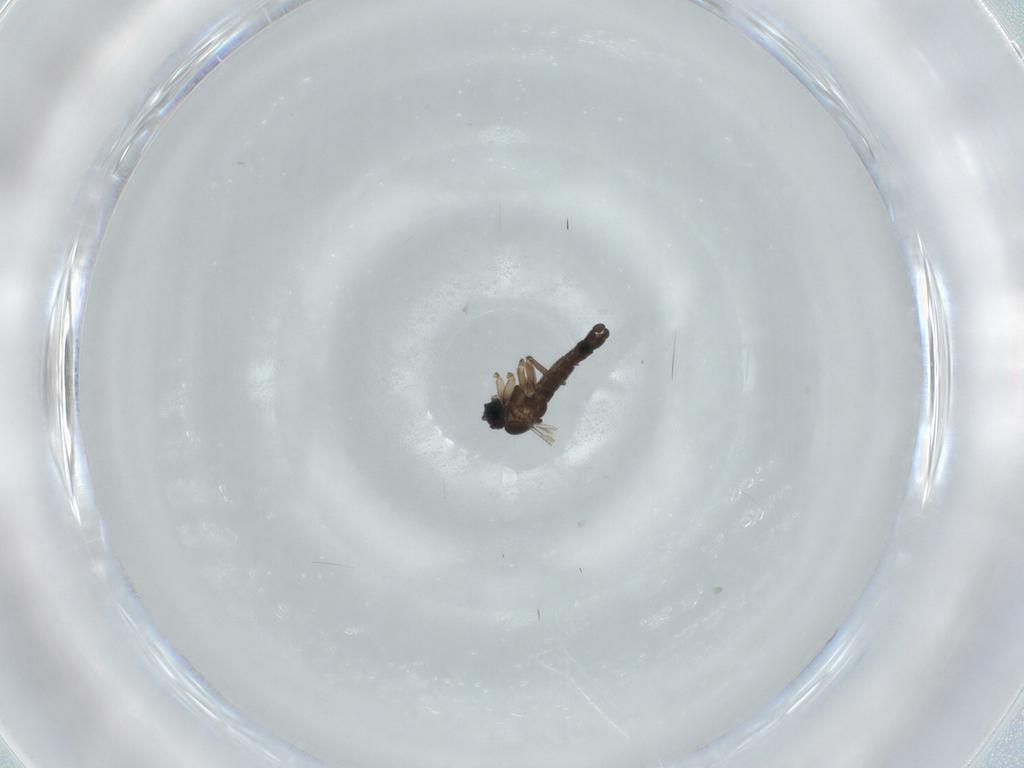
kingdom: Animalia
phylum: Arthropoda
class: Insecta
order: Diptera
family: Sciaridae
